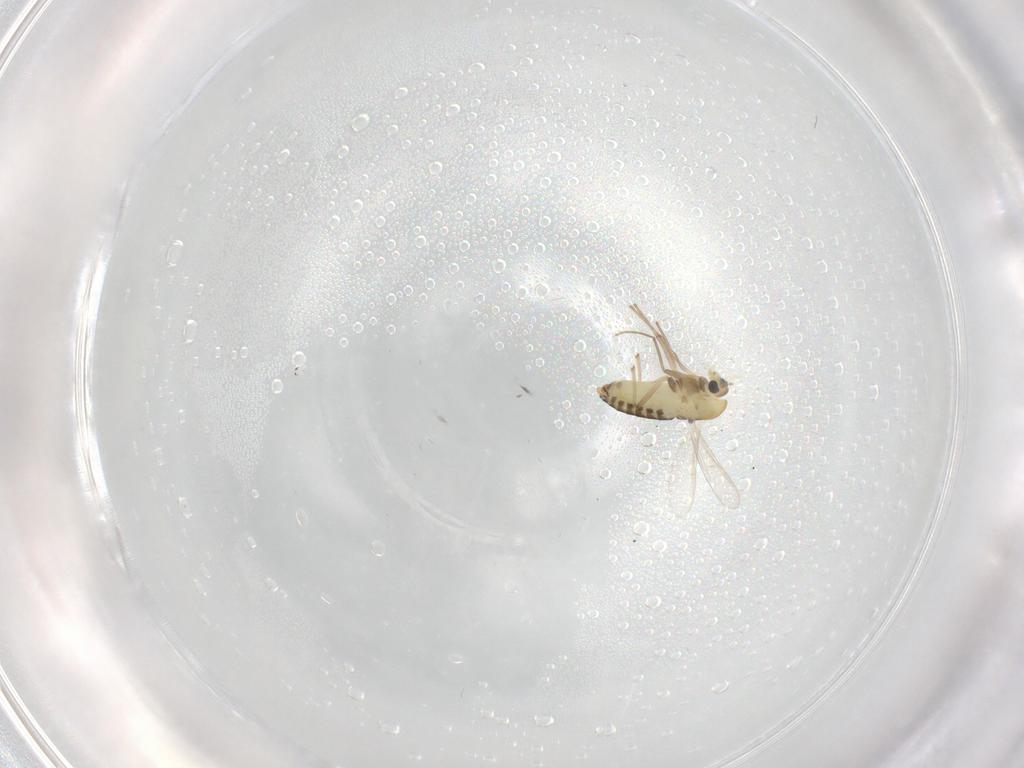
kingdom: Animalia
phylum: Arthropoda
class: Insecta
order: Diptera
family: Chironomidae
